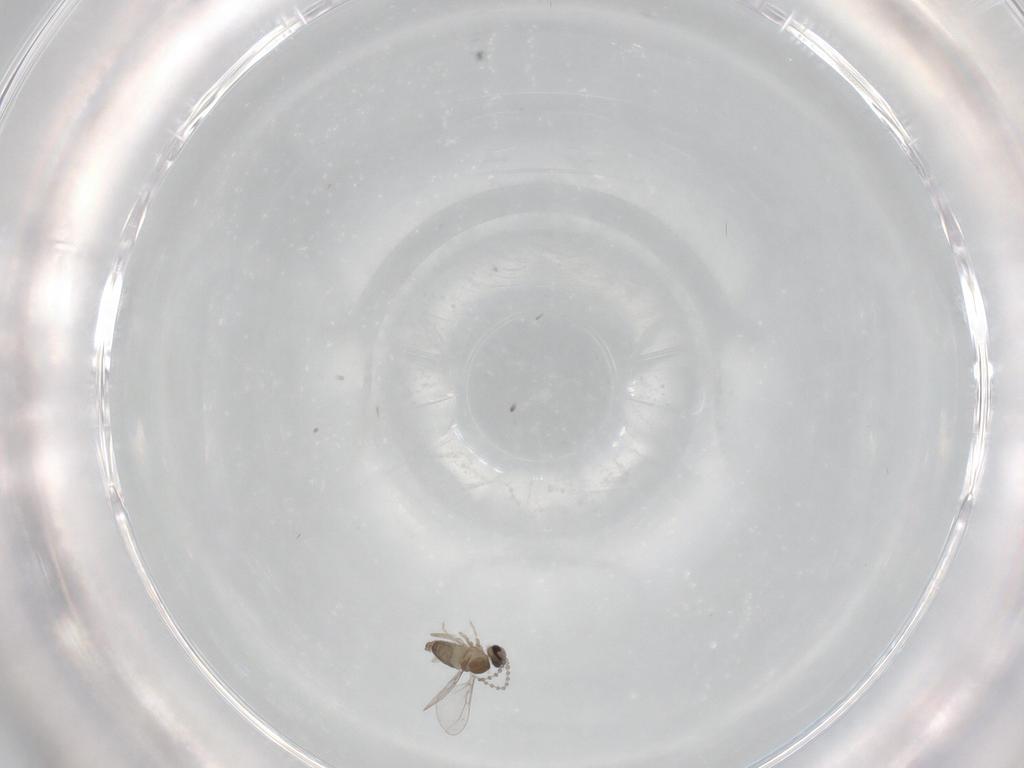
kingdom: Animalia
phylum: Arthropoda
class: Insecta
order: Diptera
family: Cecidomyiidae
